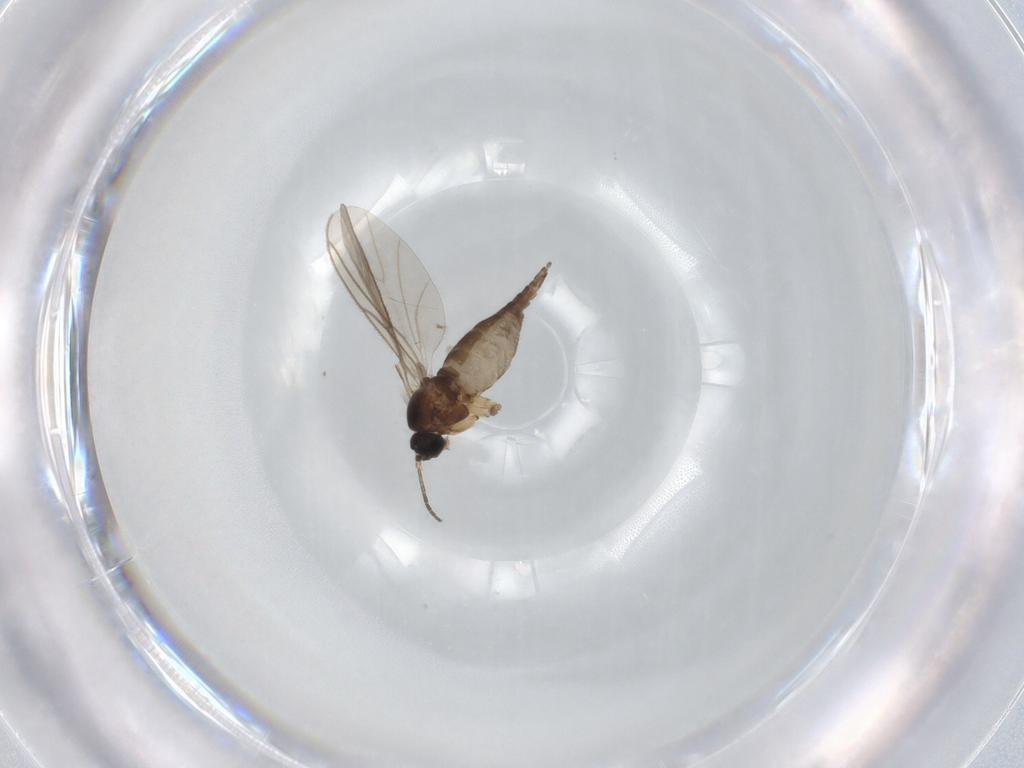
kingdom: Animalia
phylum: Arthropoda
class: Insecta
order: Diptera
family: Sciaridae
